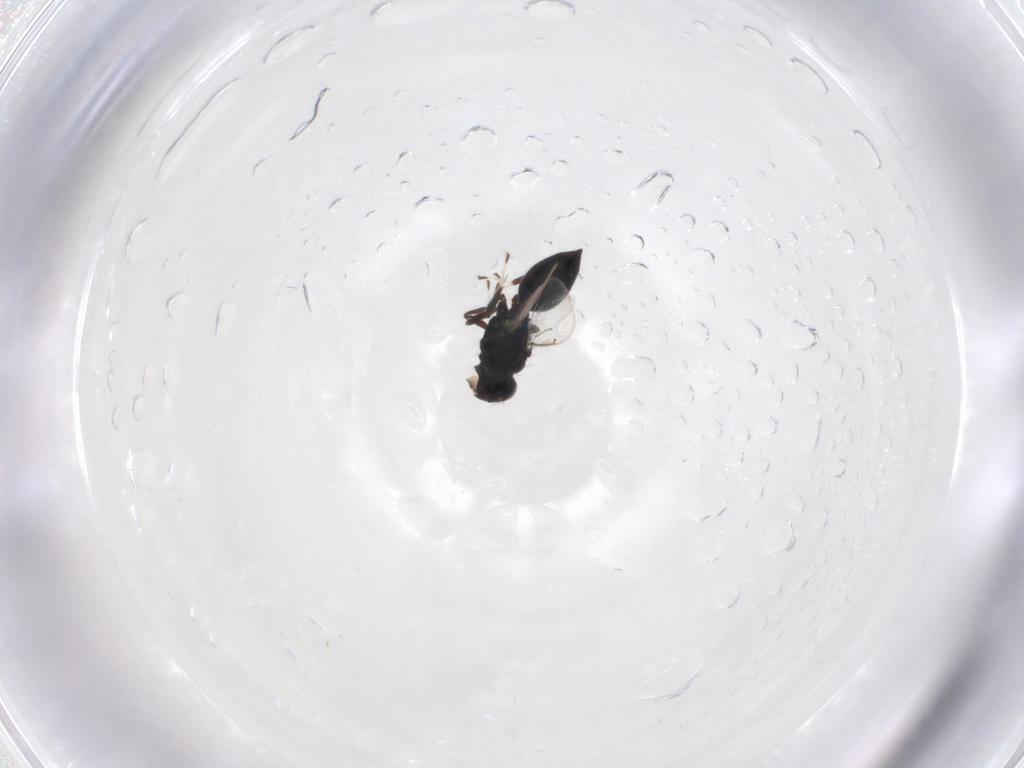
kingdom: Animalia
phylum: Arthropoda
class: Insecta
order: Hymenoptera
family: Eulophidae
